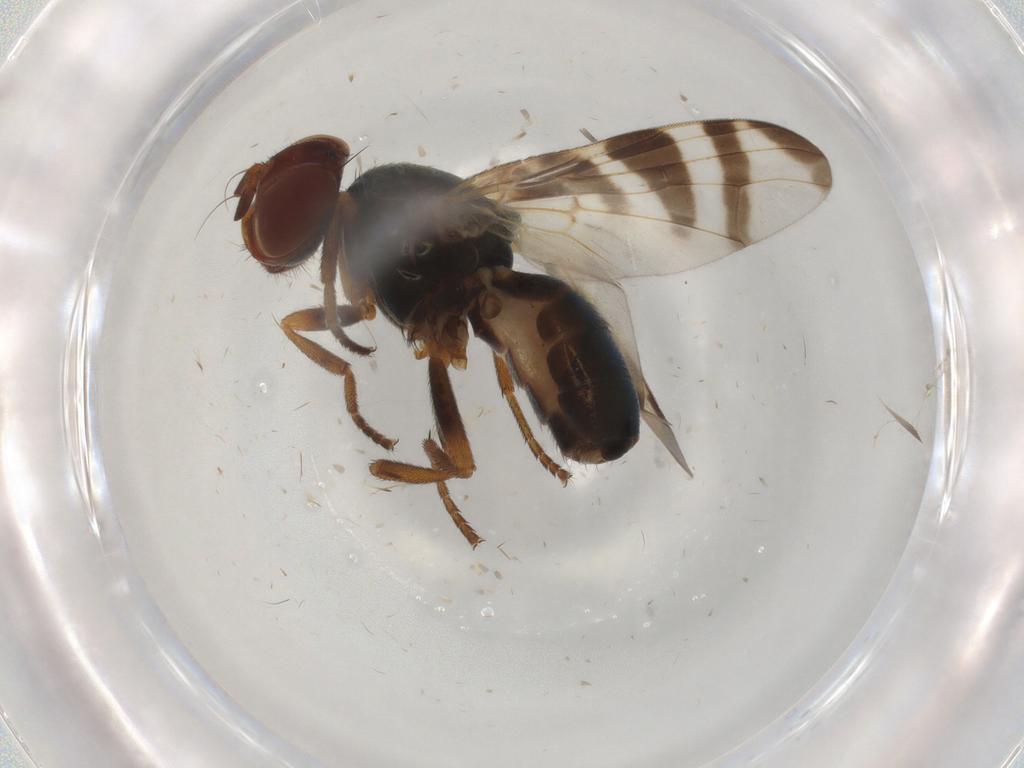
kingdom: Animalia
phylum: Arthropoda
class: Insecta
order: Diptera
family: Platystomatidae
